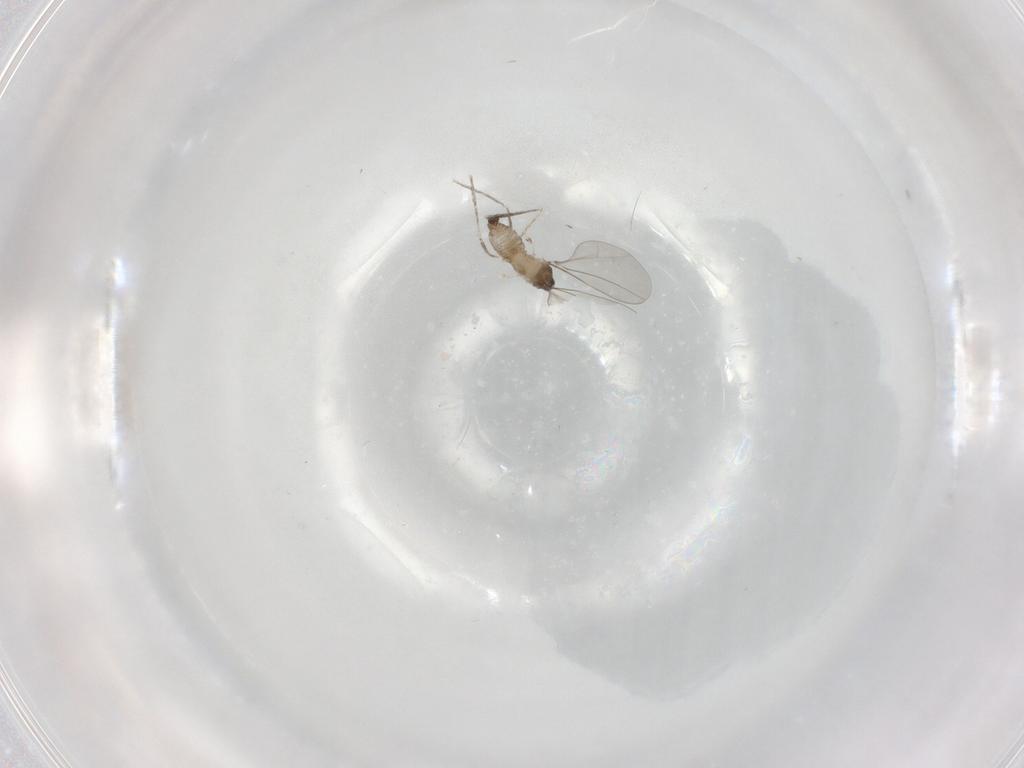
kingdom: Animalia
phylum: Arthropoda
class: Insecta
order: Diptera
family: Cecidomyiidae
